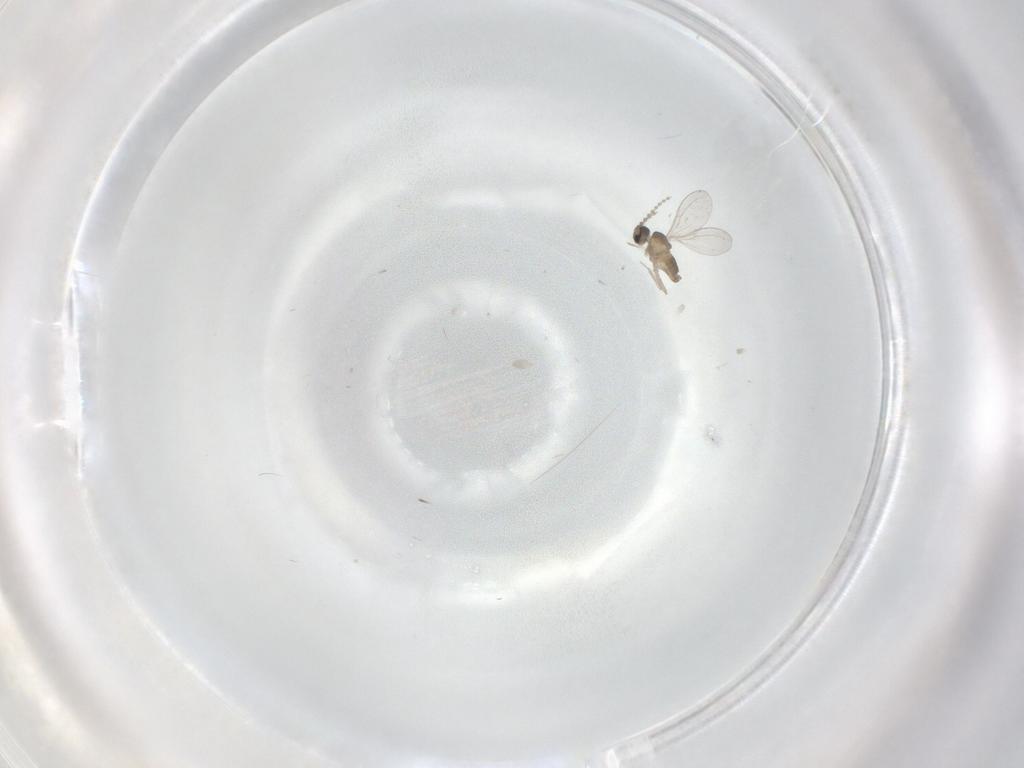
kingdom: Animalia
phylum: Arthropoda
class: Insecta
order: Diptera
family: Cecidomyiidae
